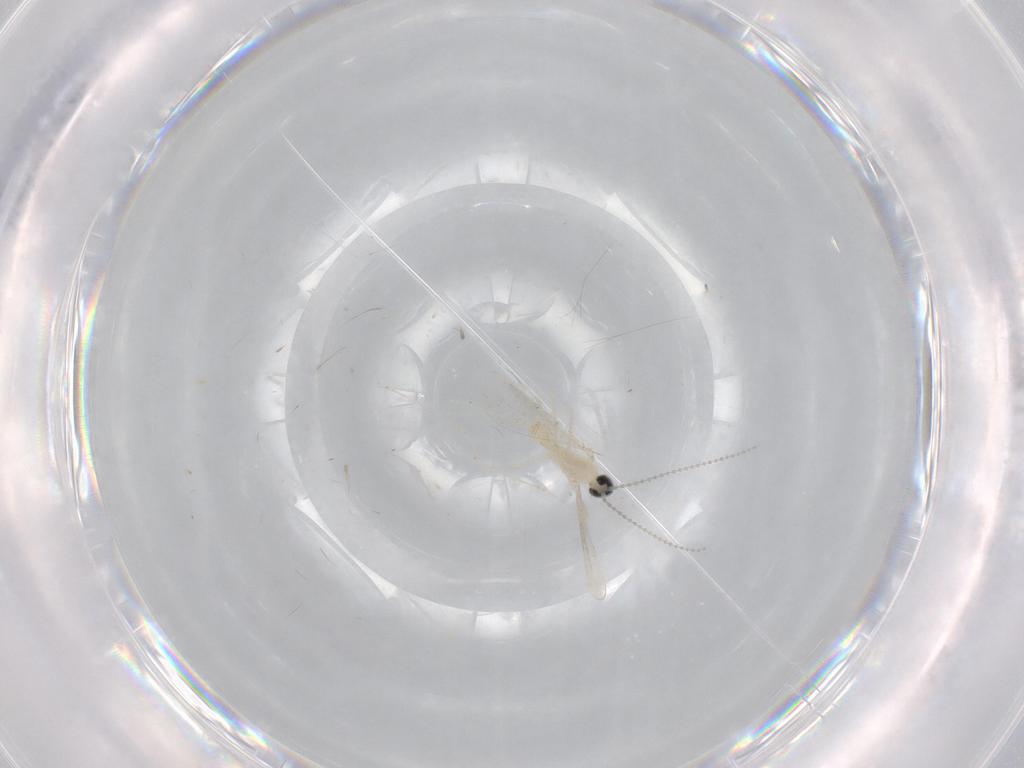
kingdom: Animalia
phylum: Arthropoda
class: Insecta
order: Diptera
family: Cecidomyiidae
